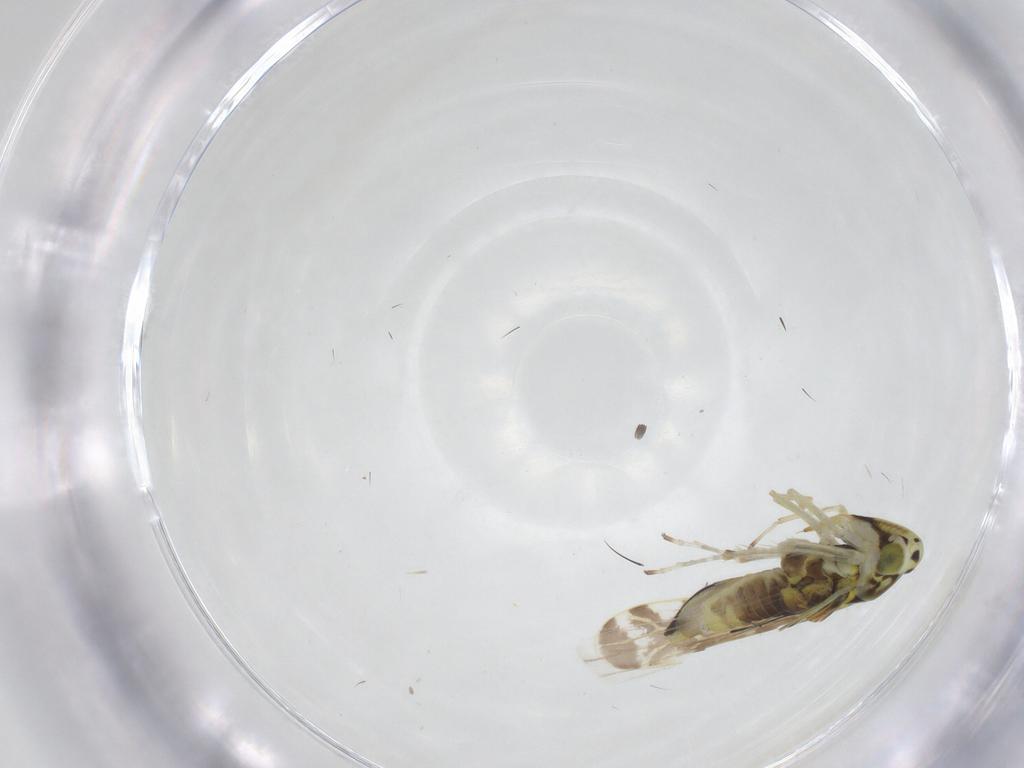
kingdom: Animalia
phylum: Arthropoda
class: Insecta
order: Hemiptera
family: Cicadellidae
